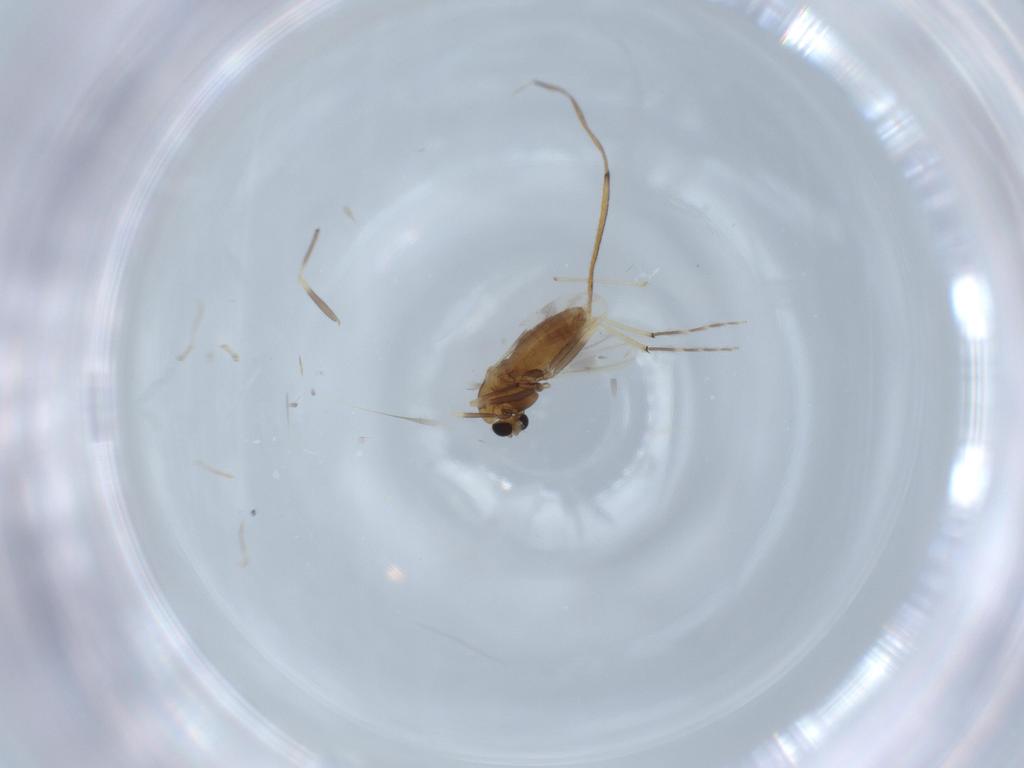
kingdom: Animalia
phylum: Arthropoda
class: Insecta
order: Diptera
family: Chironomidae
